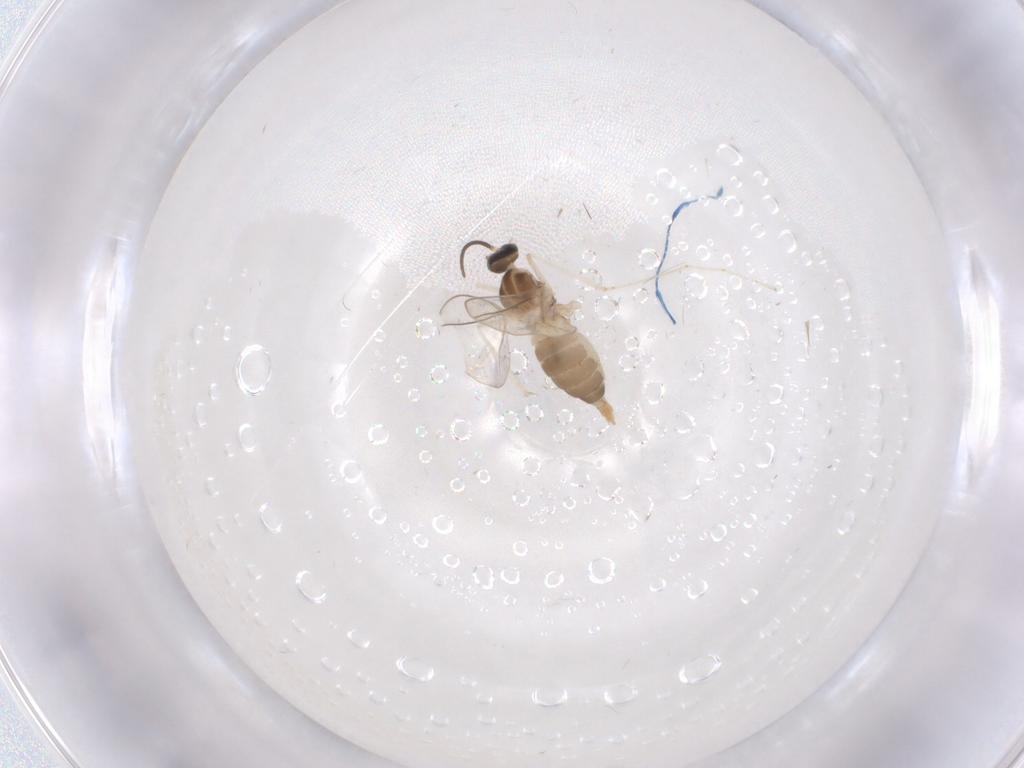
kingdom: Animalia
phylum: Arthropoda
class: Insecta
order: Diptera
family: Cecidomyiidae
